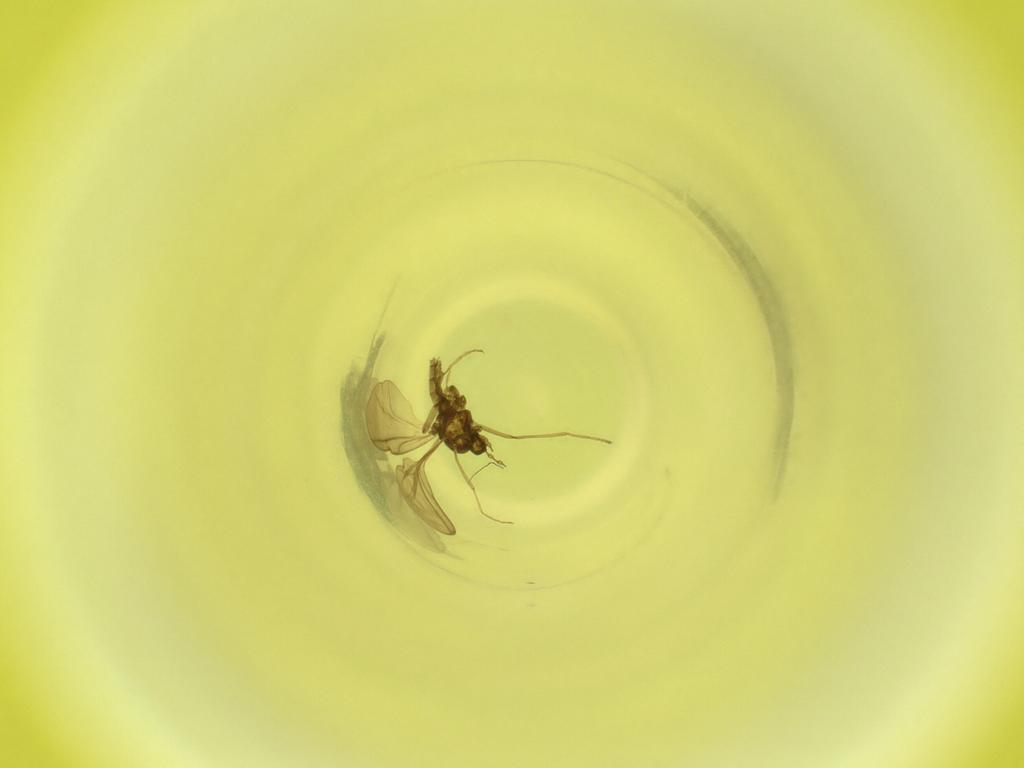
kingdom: Animalia
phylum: Arthropoda
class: Insecta
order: Diptera
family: Cecidomyiidae
